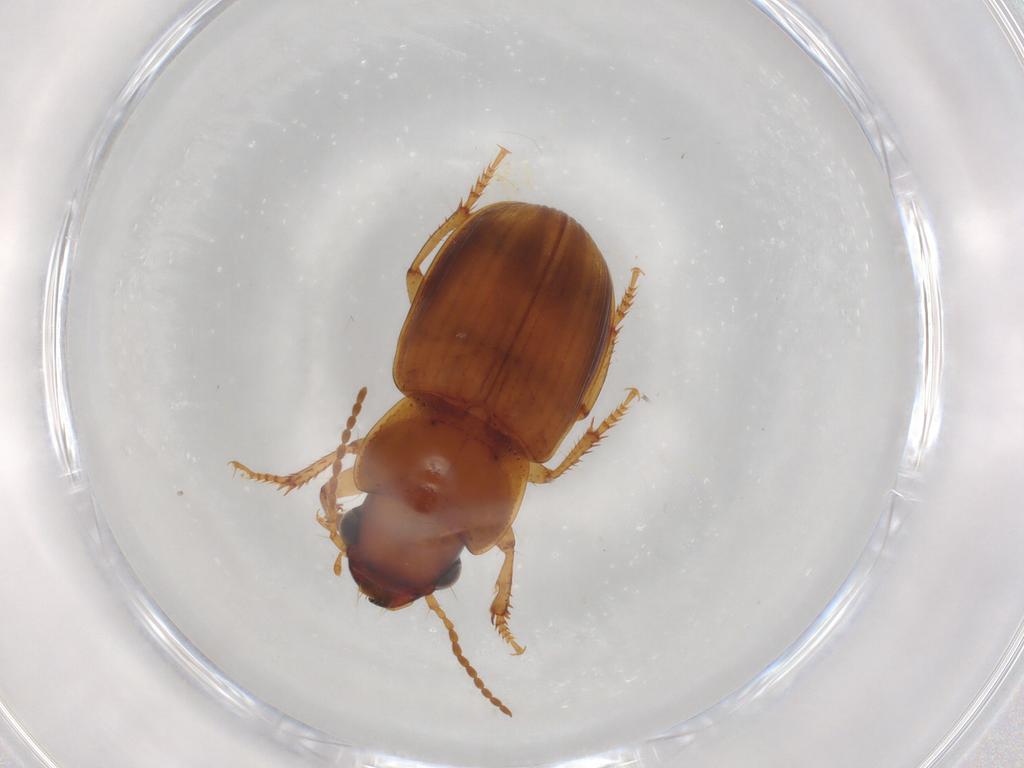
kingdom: Animalia
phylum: Arthropoda
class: Insecta
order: Coleoptera
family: Carabidae
